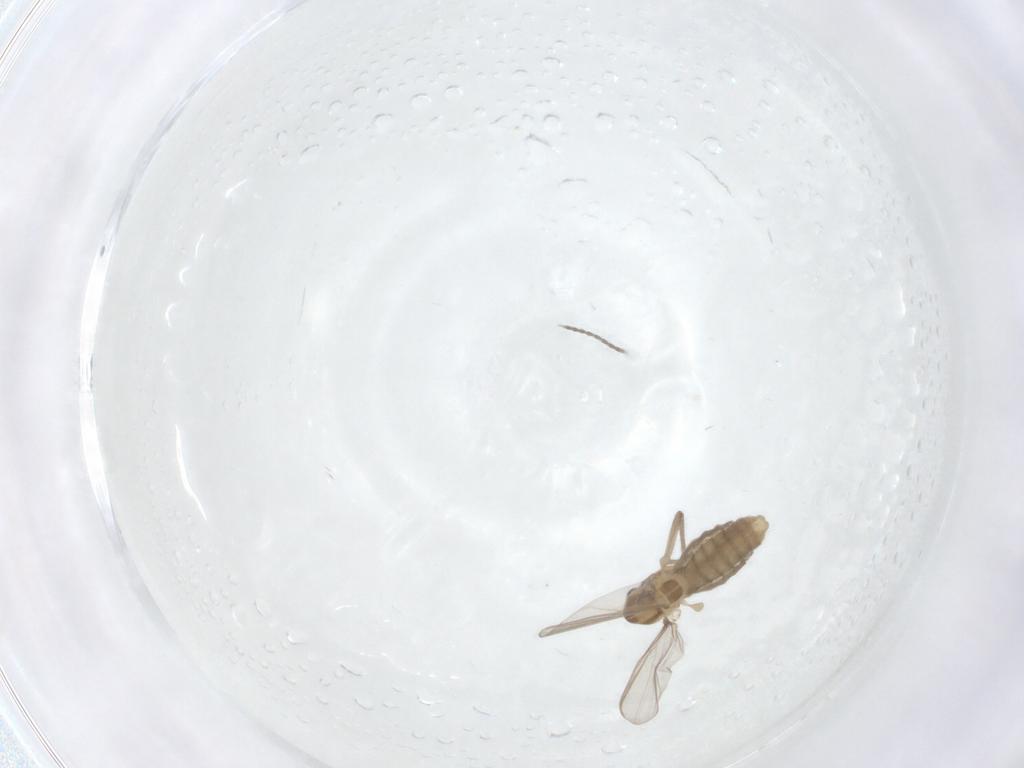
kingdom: Animalia
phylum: Arthropoda
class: Insecta
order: Diptera
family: Chironomidae
